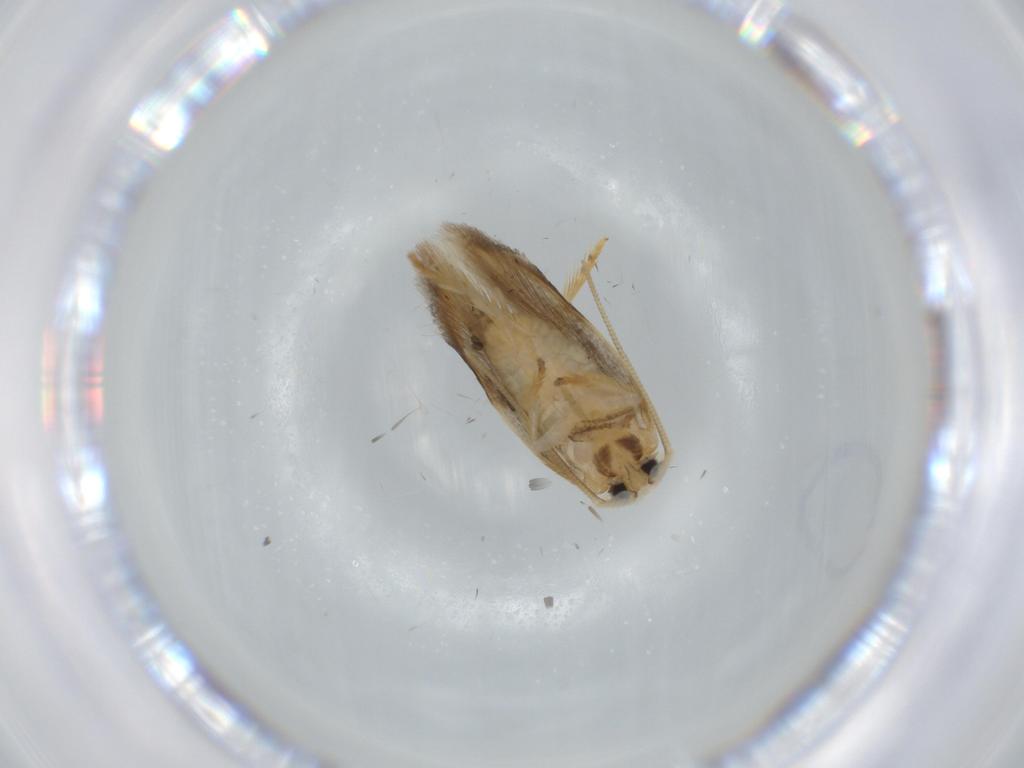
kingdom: Animalia
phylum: Arthropoda
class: Insecta
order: Lepidoptera
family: Opostegidae
